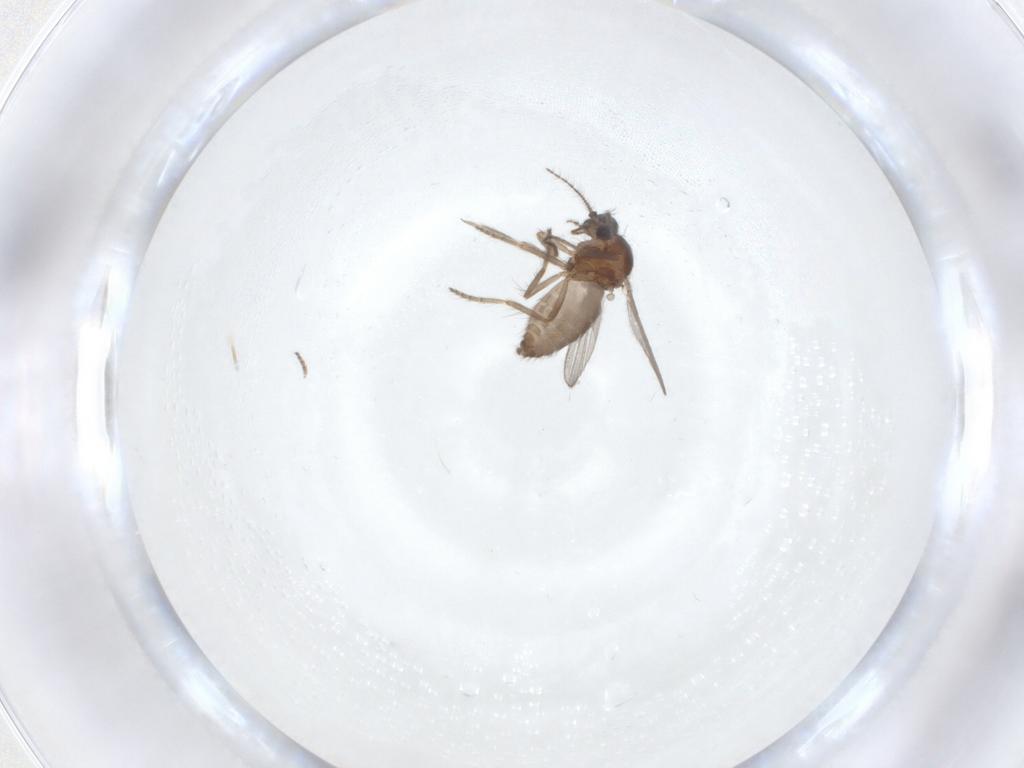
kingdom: Animalia
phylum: Arthropoda
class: Insecta
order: Diptera
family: Ceratopogonidae
